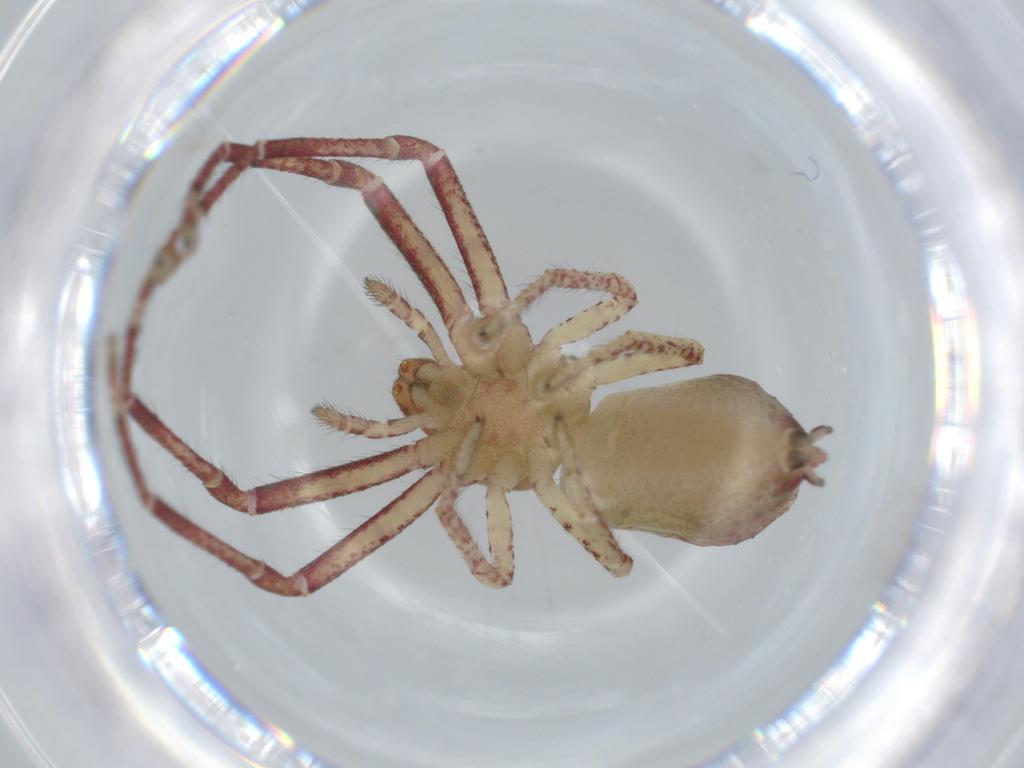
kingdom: Animalia
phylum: Arthropoda
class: Arachnida
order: Araneae
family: Thomisidae
